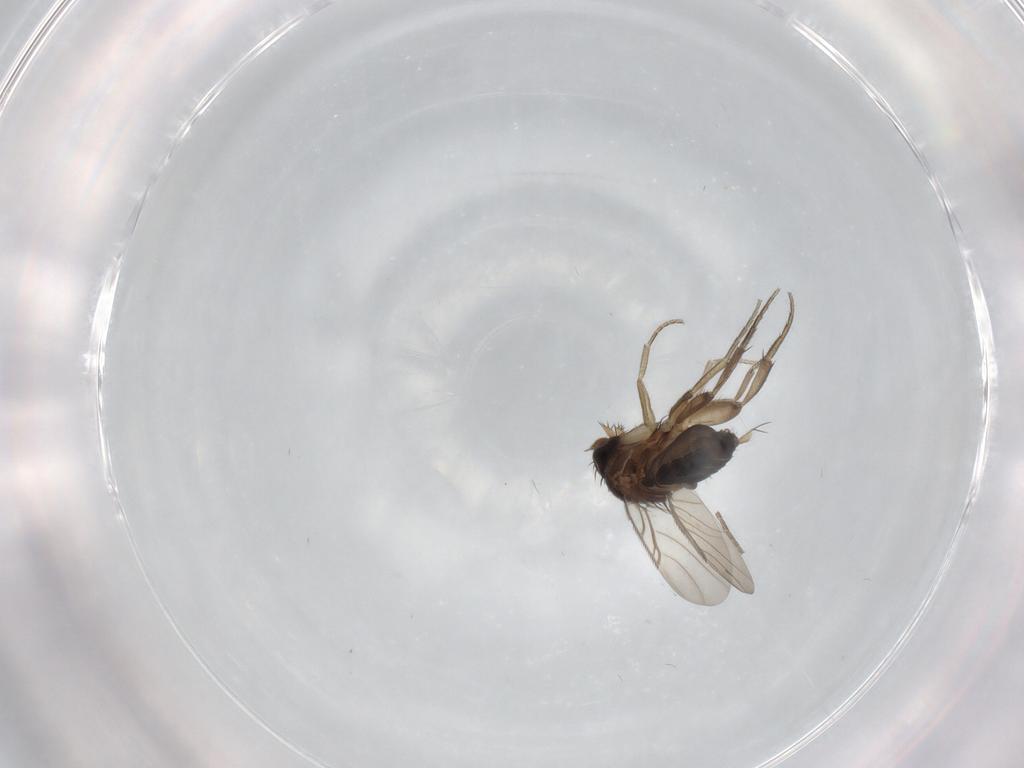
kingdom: Animalia
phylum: Arthropoda
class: Insecta
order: Diptera
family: Phoridae
